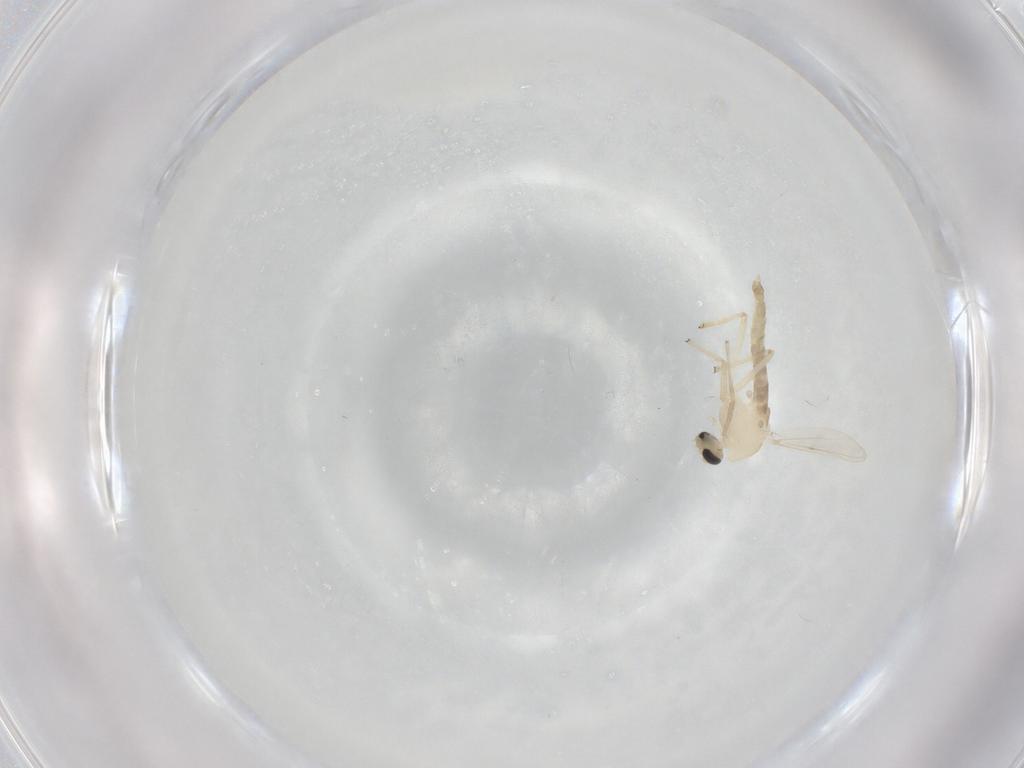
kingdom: Animalia
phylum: Arthropoda
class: Insecta
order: Diptera
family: Chironomidae
